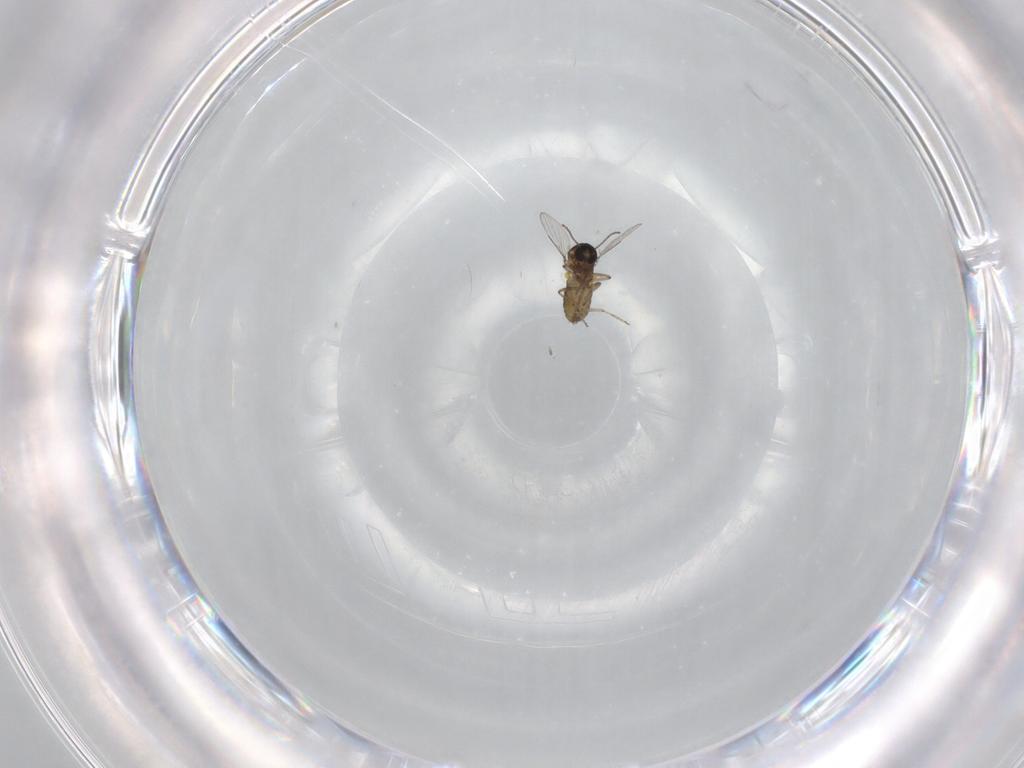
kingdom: Animalia
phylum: Arthropoda
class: Insecta
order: Diptera
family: Ceratopogonidae
